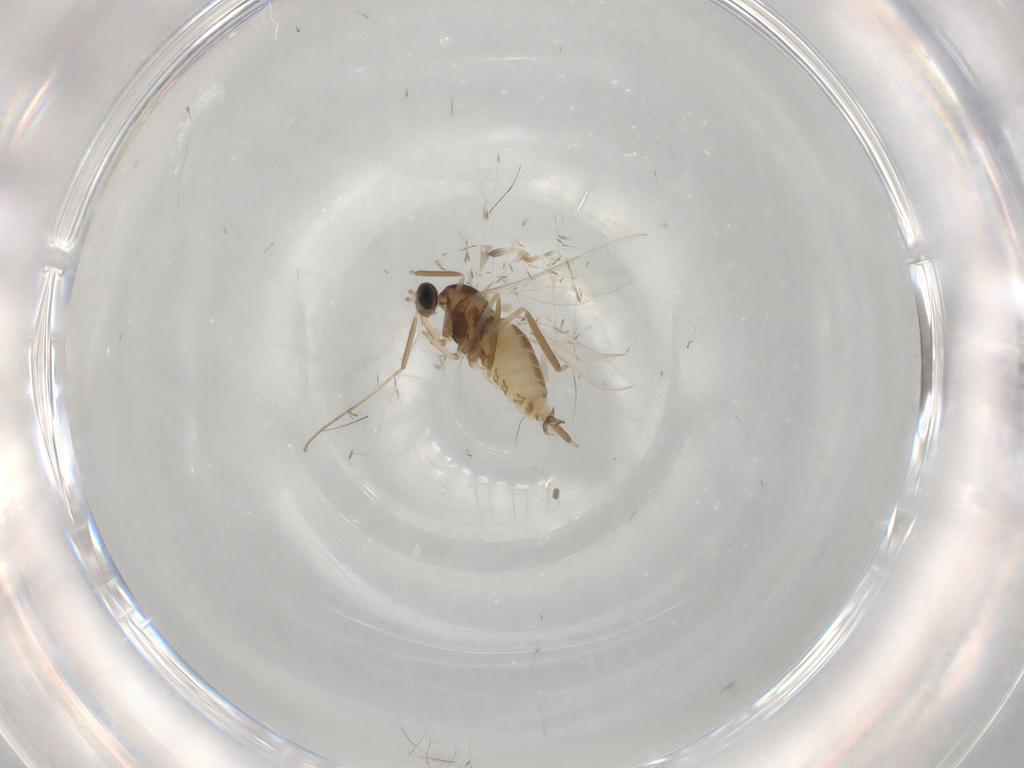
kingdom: Animalia
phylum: Arthropoda
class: Insecta
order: Diptera
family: Cecidomyiidae
